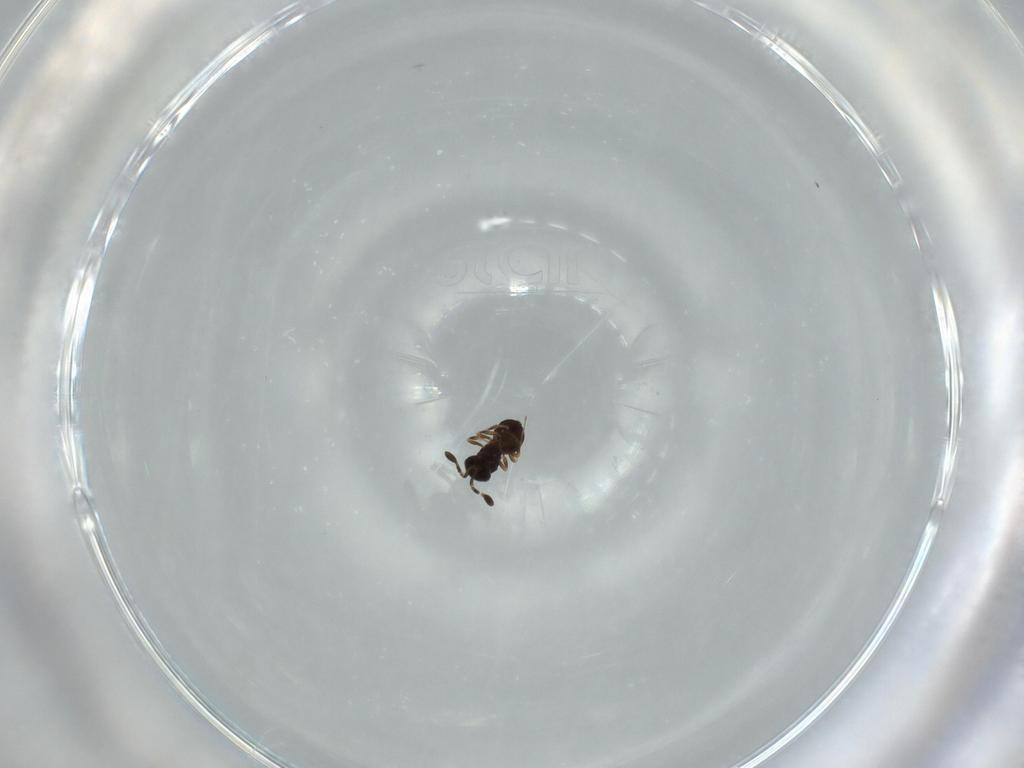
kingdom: Animalia
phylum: Arthropoda
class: Insecta
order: Hymenoptera
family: Scelionidae
